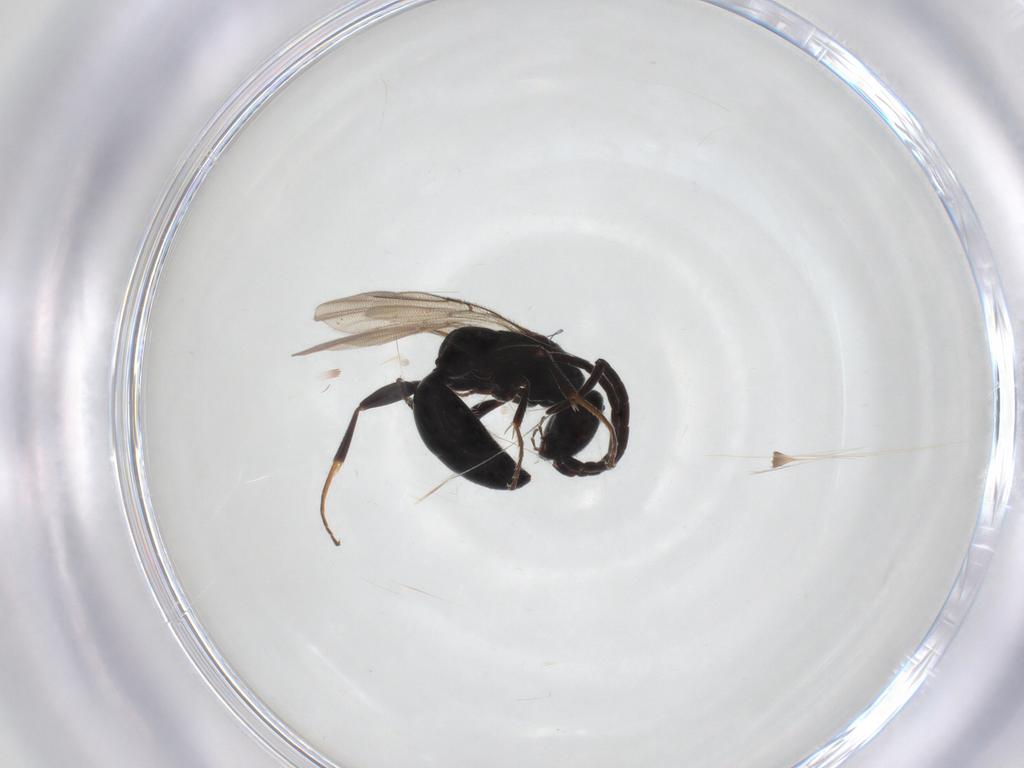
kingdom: Animalia
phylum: Arthropoda
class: Insecta
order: Hymenoptera
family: Bethylidae
